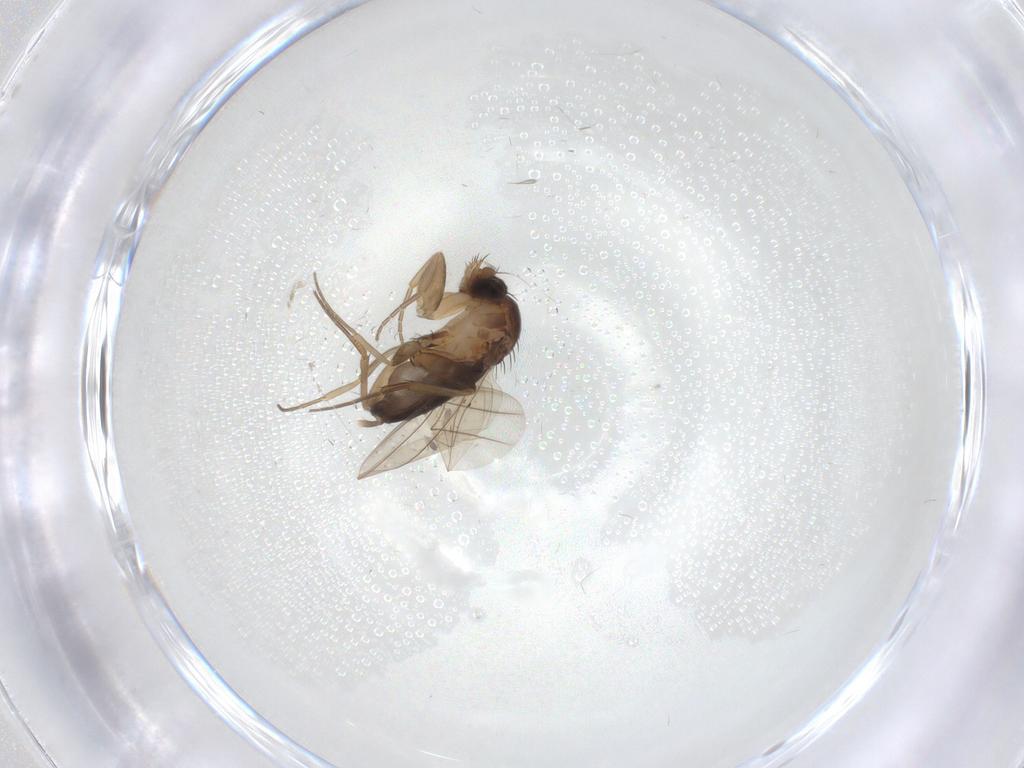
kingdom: Animalia
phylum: Arthropoda
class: Insecta
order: Diptera
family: Phoridae
